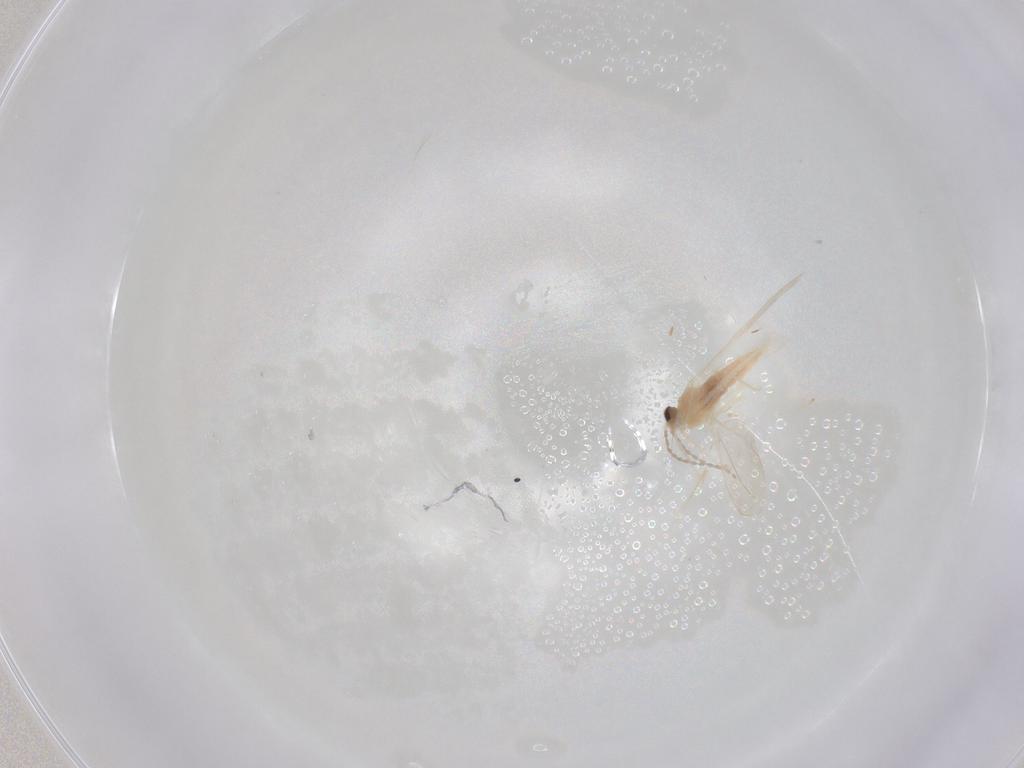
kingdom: Animalia
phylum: Arthropoda
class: Insecta
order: Diptera
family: Cecidomyiidae
